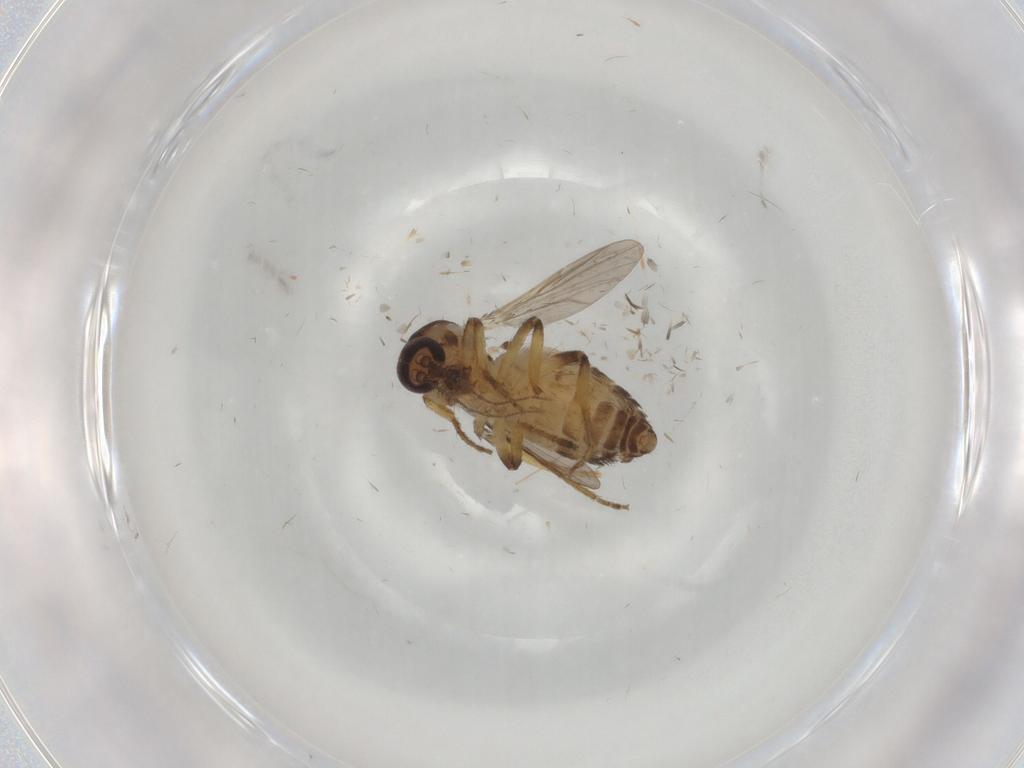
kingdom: Animalia
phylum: Arthropoda
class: Insecta
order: Diptera
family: Ceratopogonidae
